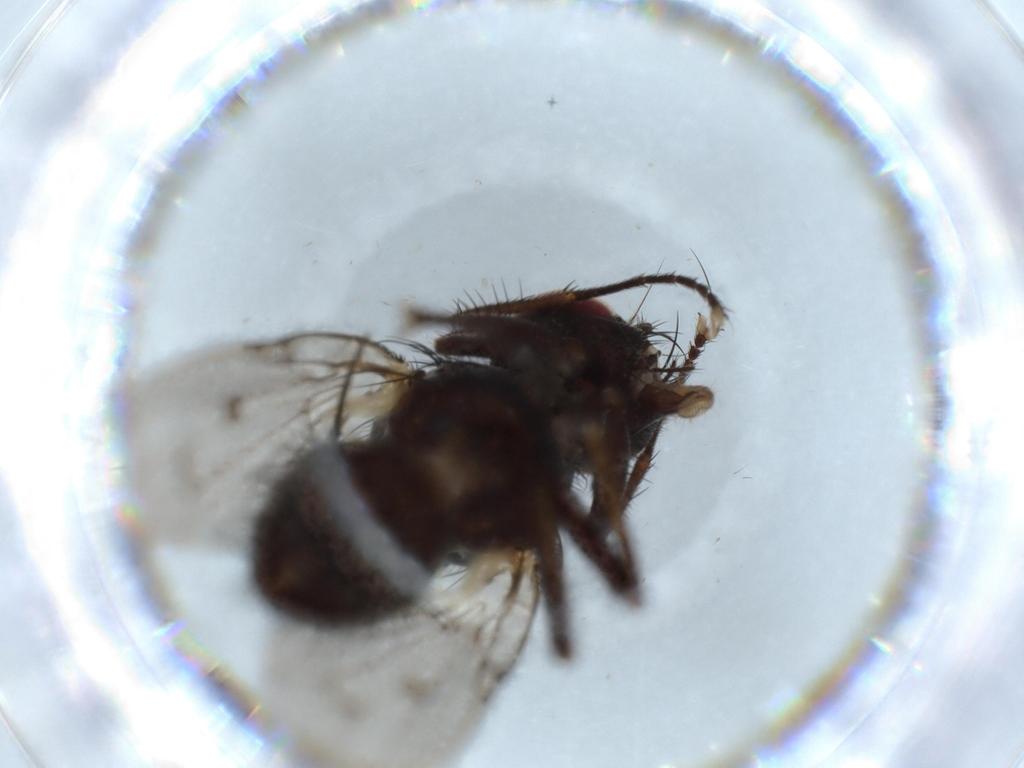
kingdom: Animalia
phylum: Arthropoda
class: Insecta
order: Diptera
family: Muscidae
